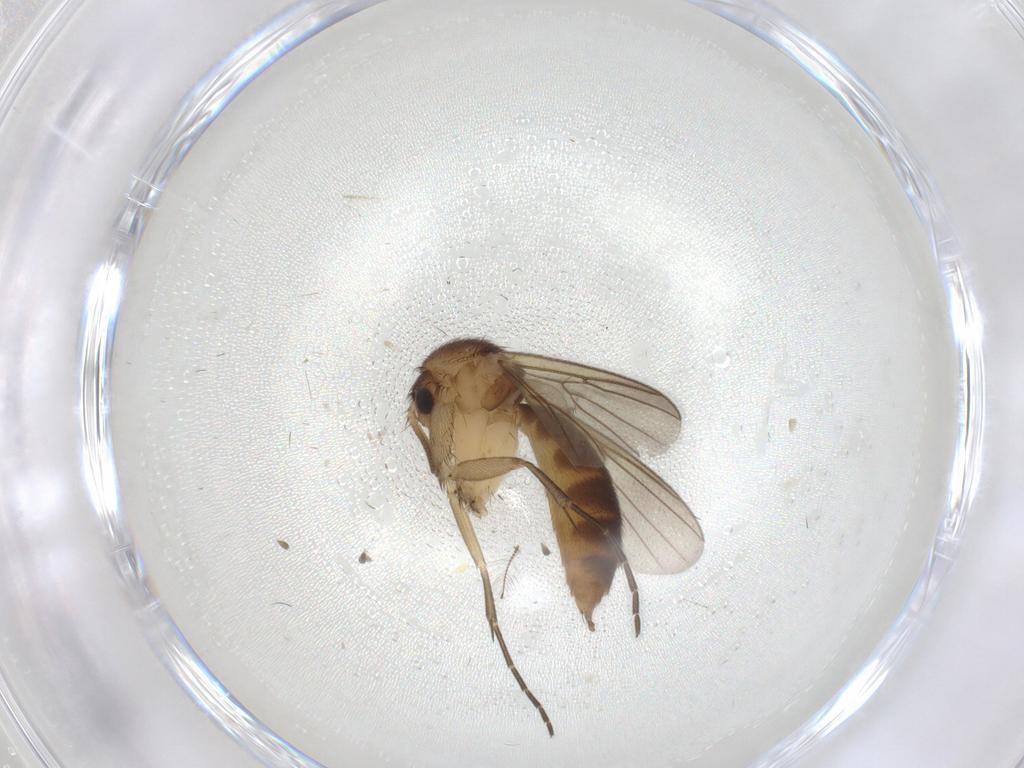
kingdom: Animalia
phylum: Arthropoda
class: Insecta
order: Diptera
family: Mycetophilidae
